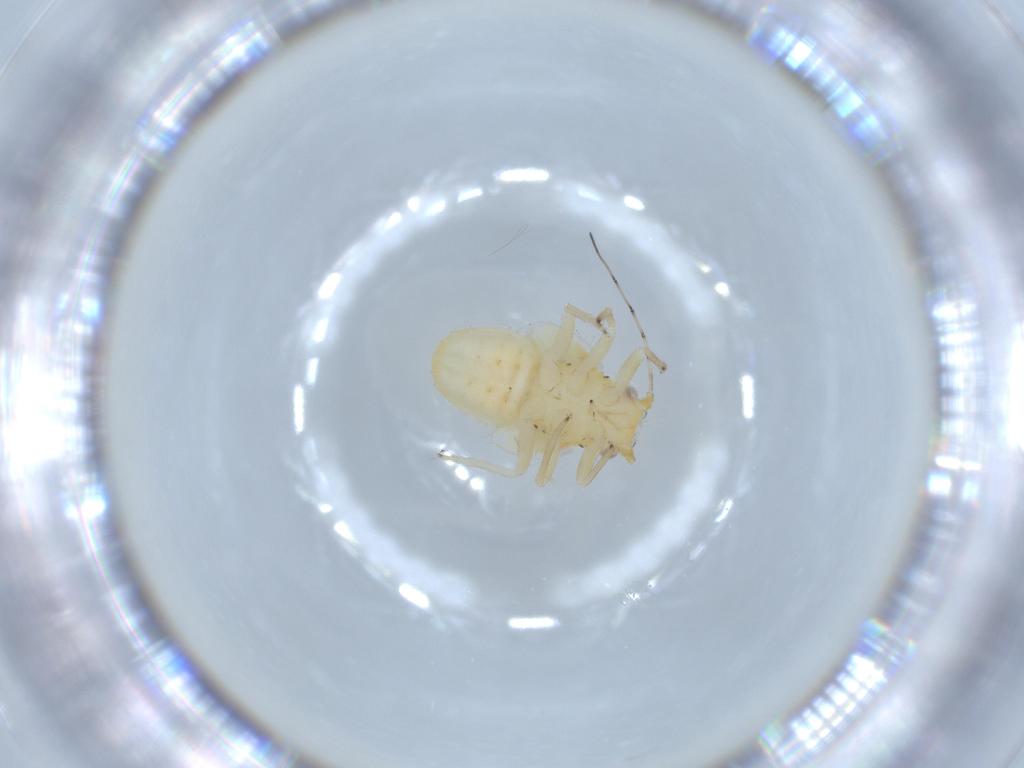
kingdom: Animalia
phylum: Arthropoda
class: Insecta
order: Hemiptera
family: Psyllidae
